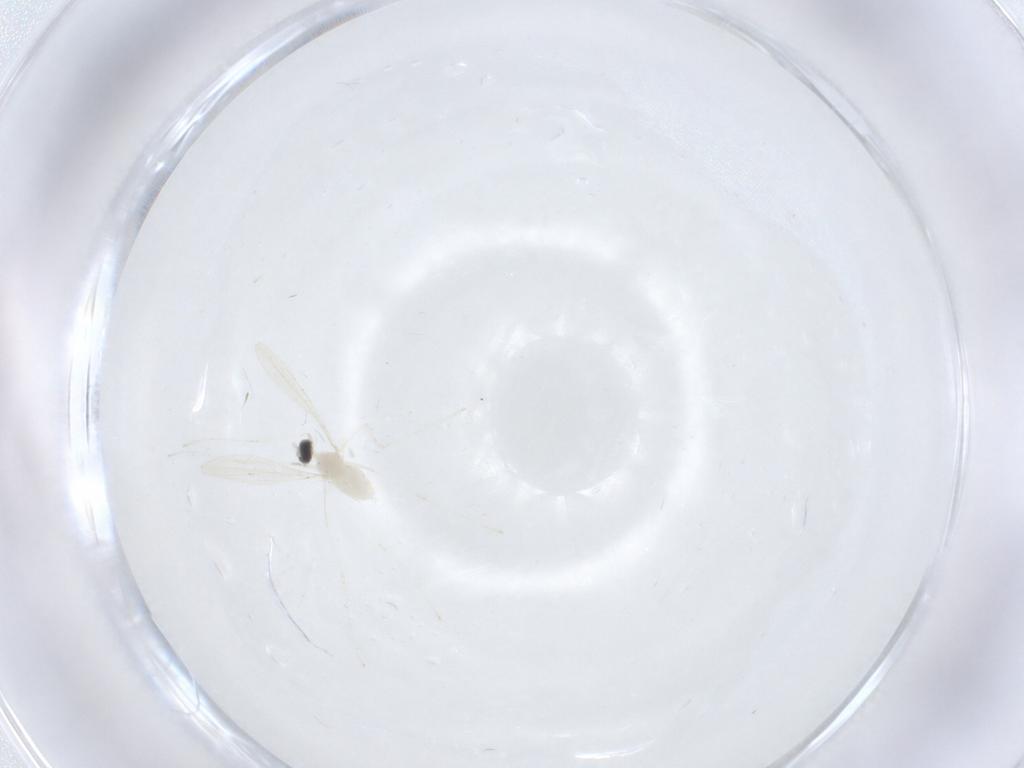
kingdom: Animalia
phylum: Arthropoda
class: Insecta
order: Diptera
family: Cecidomyiidae
